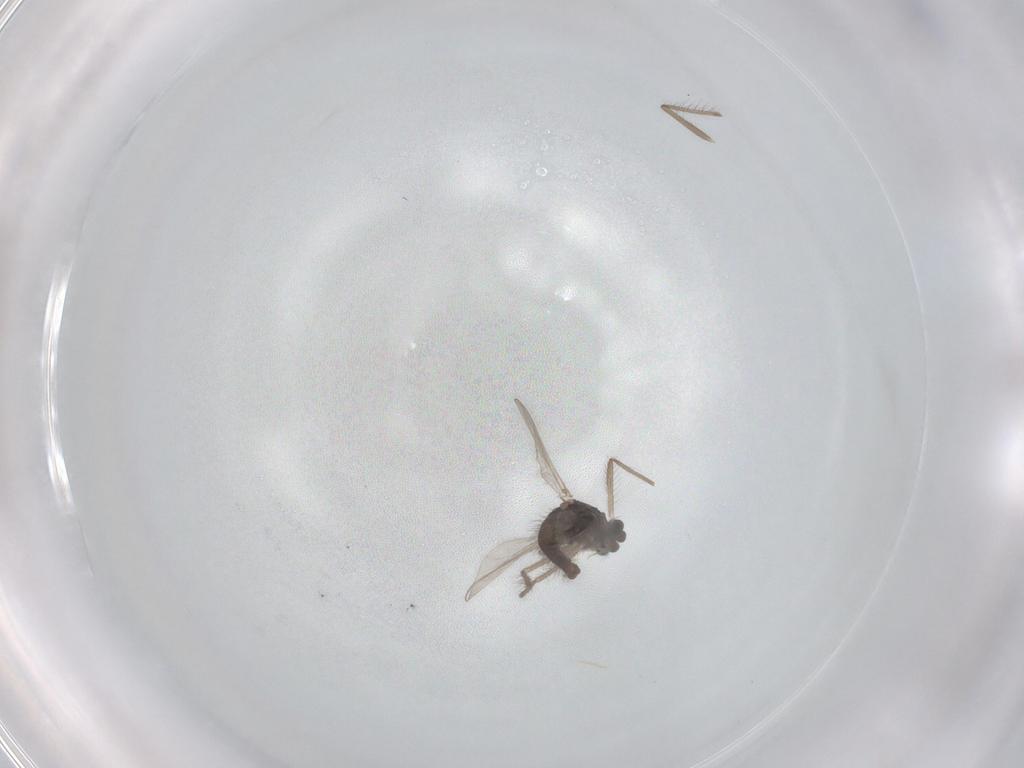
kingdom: Animalia
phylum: Arthropoda
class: Insecta
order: Diptera
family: Chironomidae
